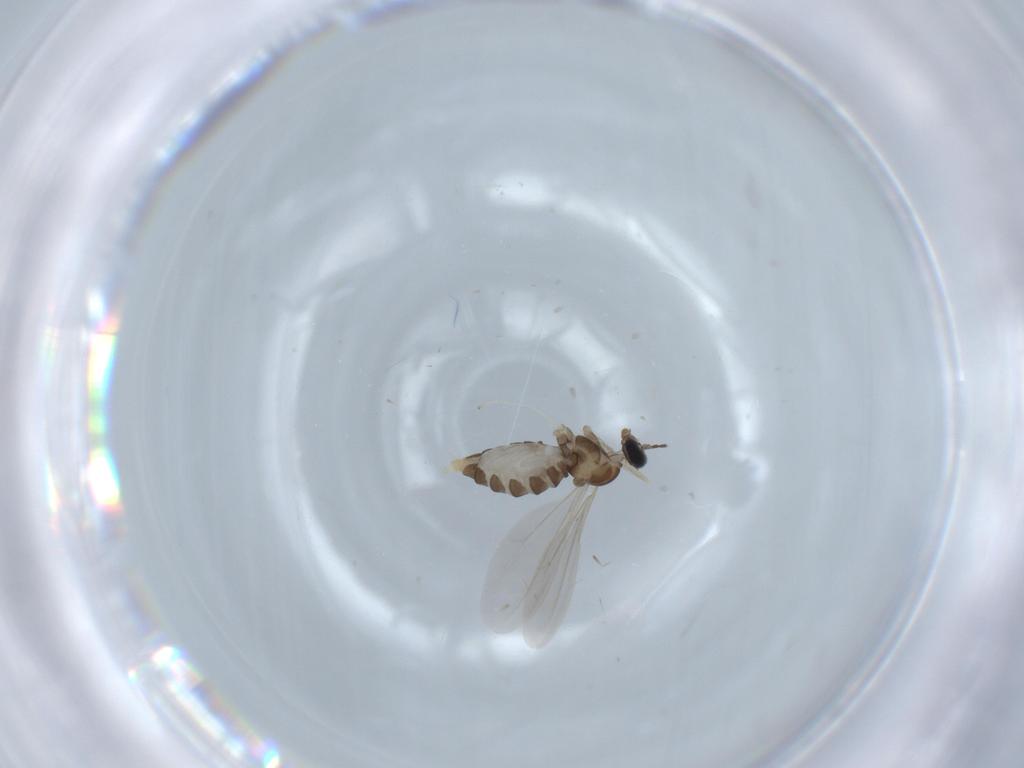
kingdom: Animalia
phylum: Arthropoda
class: Insecta
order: Diptera
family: Cecidomyiidae
